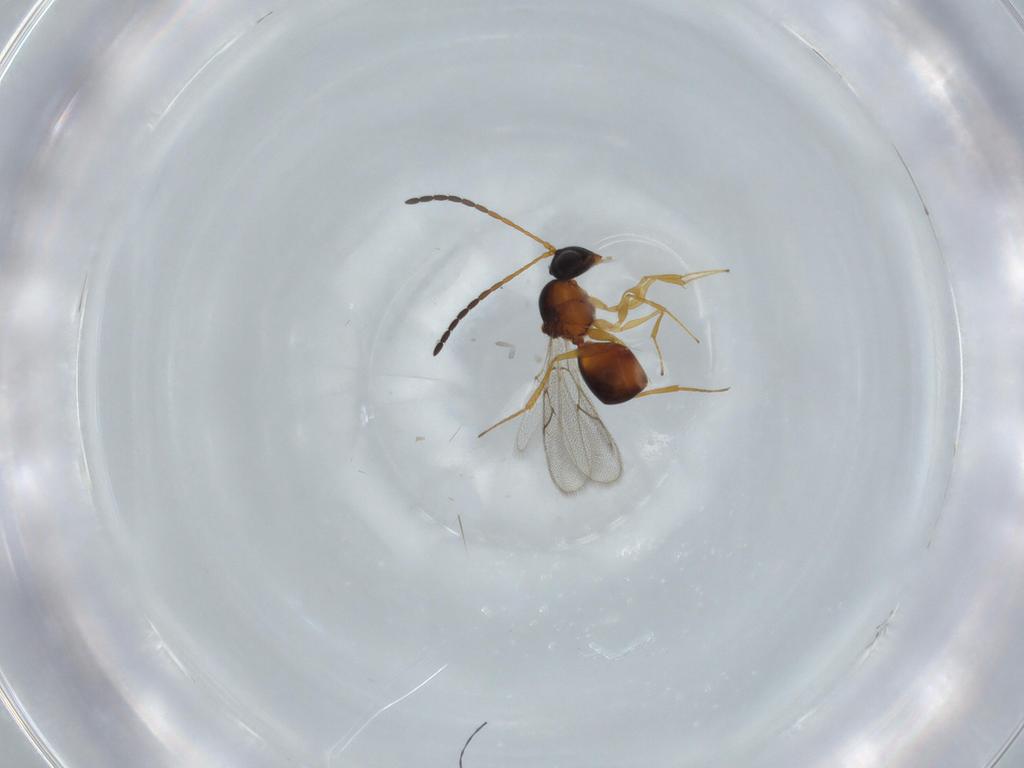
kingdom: Animalia
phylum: Arthropoda
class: Insecta
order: Hymenoptera
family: Figitidae
